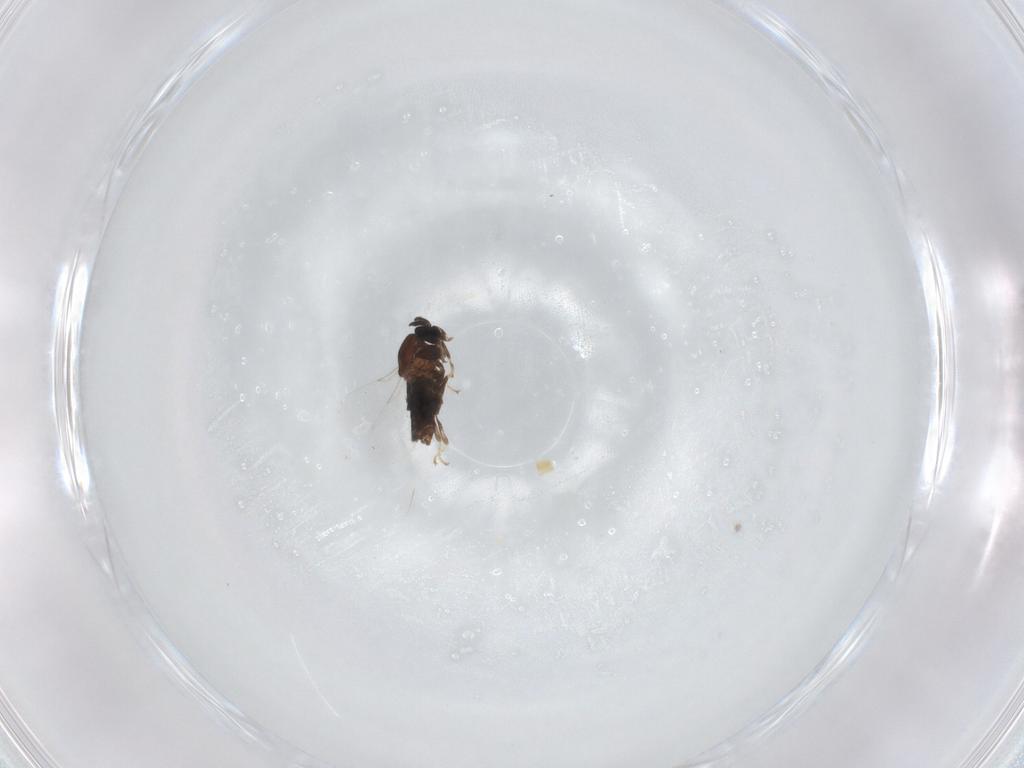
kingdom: Animalia
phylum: Arthropoda
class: Insecta
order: Diptera
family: Scatopsidae
